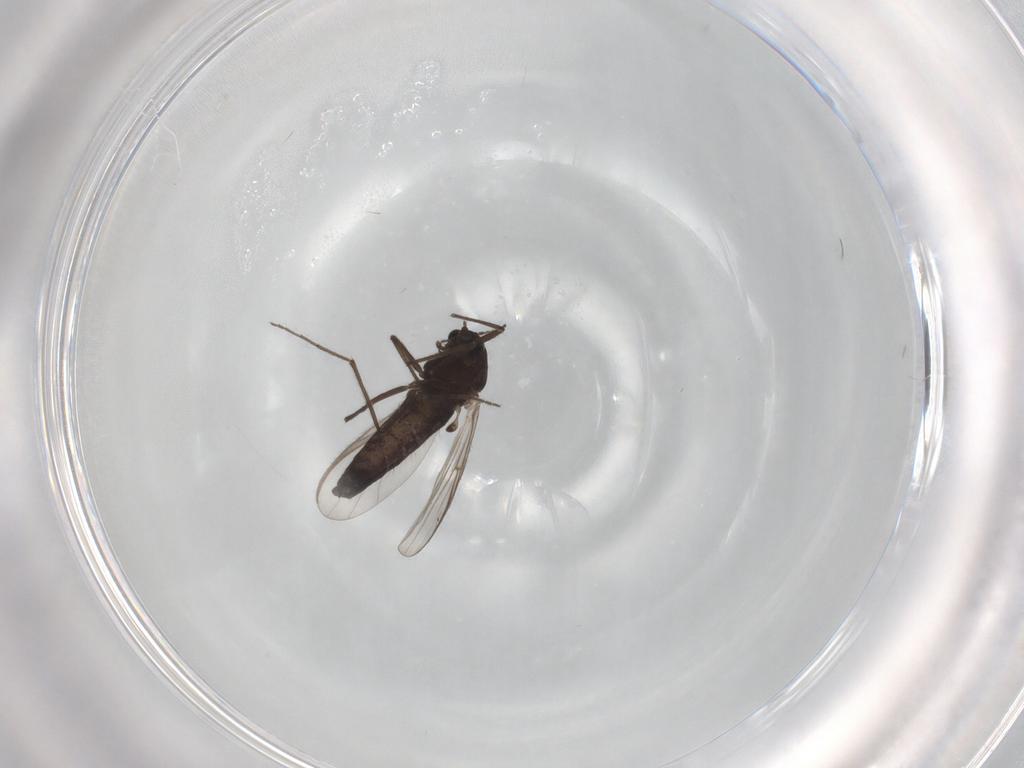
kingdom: Animalia
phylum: Arthropoda
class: Insecta
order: Diptera
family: Chironomidae
